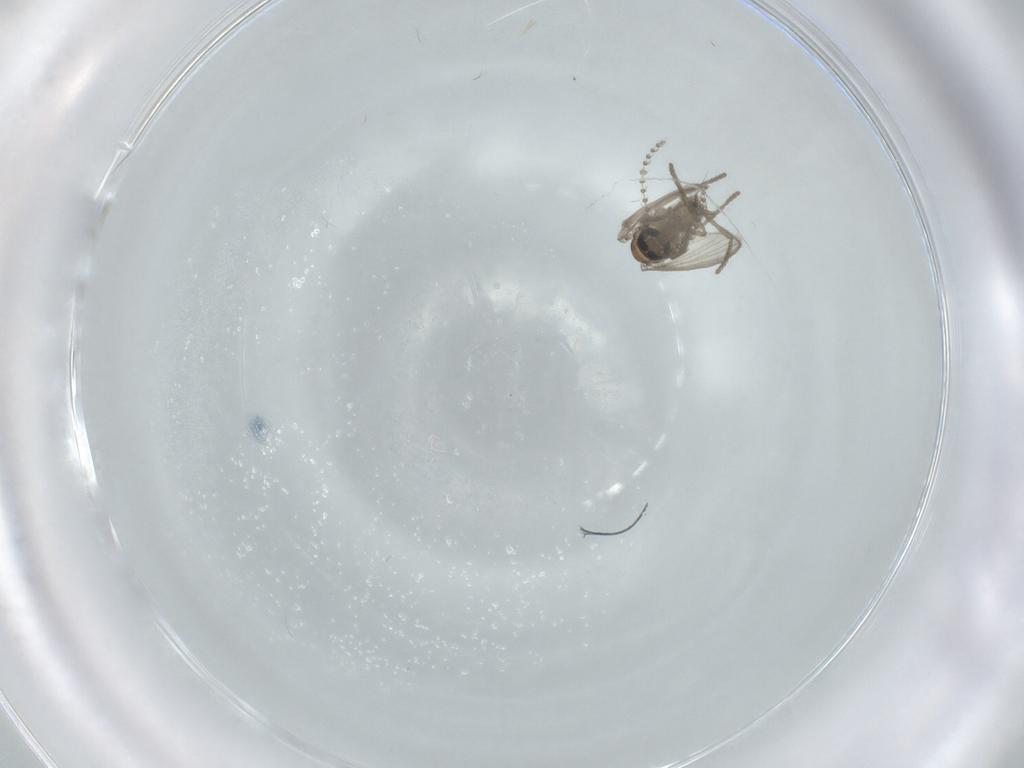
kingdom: Animalia
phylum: Arthropoda
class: Insecta
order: Diptera
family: Psychodidae
